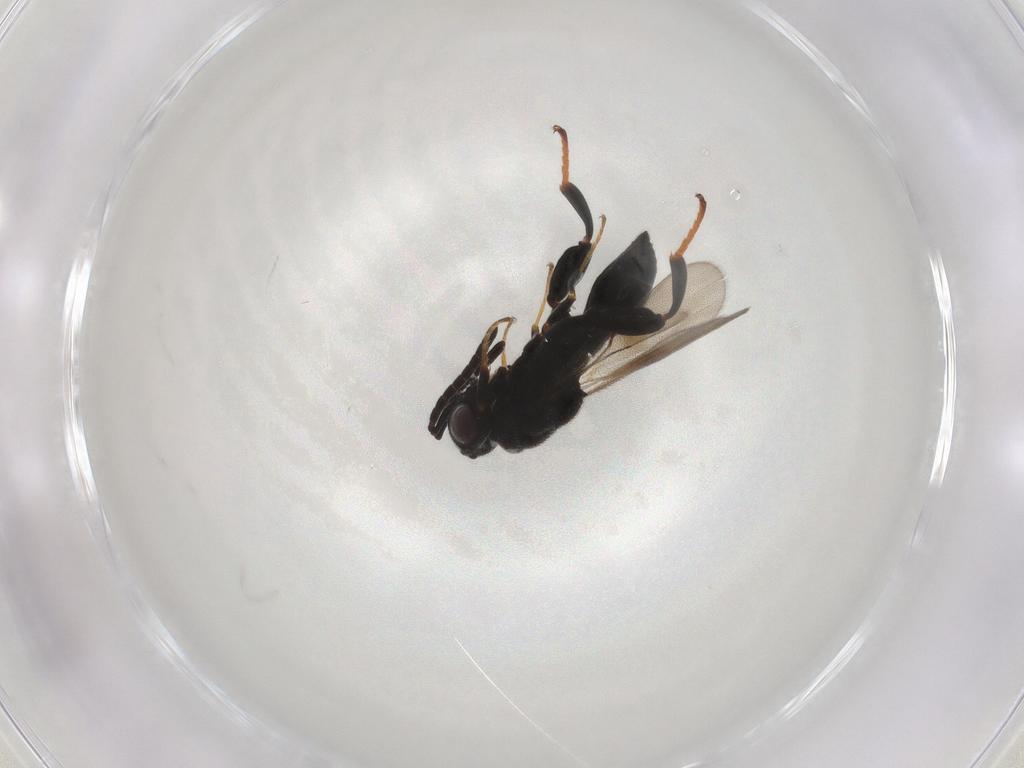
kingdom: Animalia
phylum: Arthropoda
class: Insecta
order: Hymenoptera
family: Chalcididae
